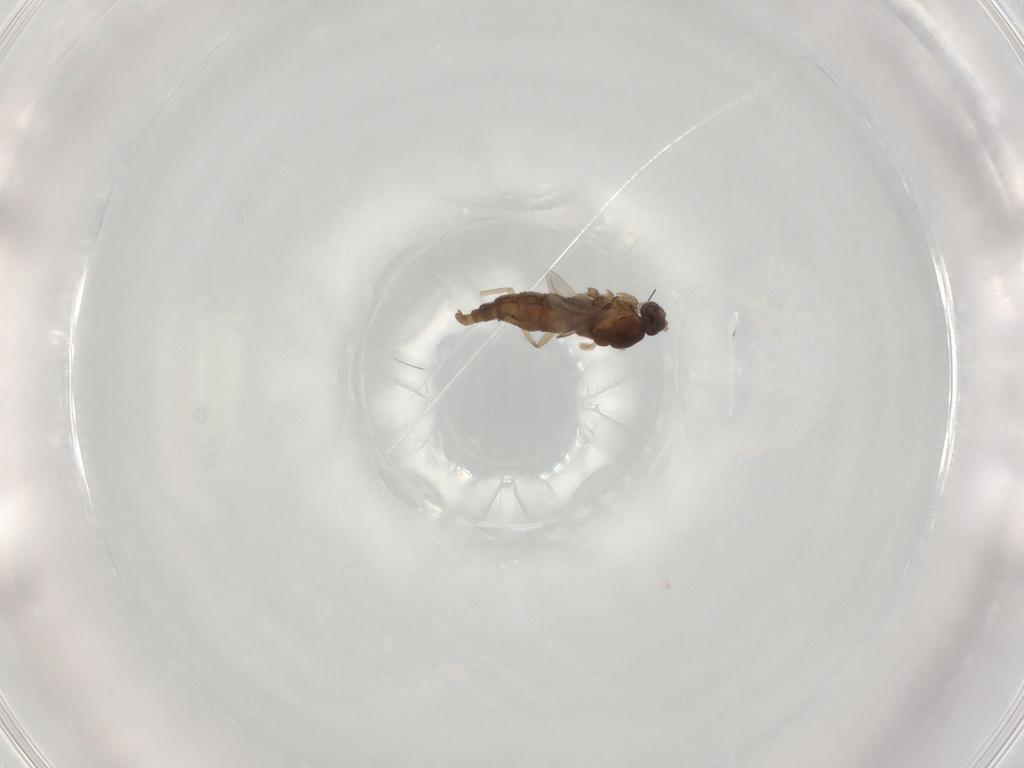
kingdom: Animalia
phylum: Arthropoda
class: Insecta
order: Diptera
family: Cecidomyiidae
